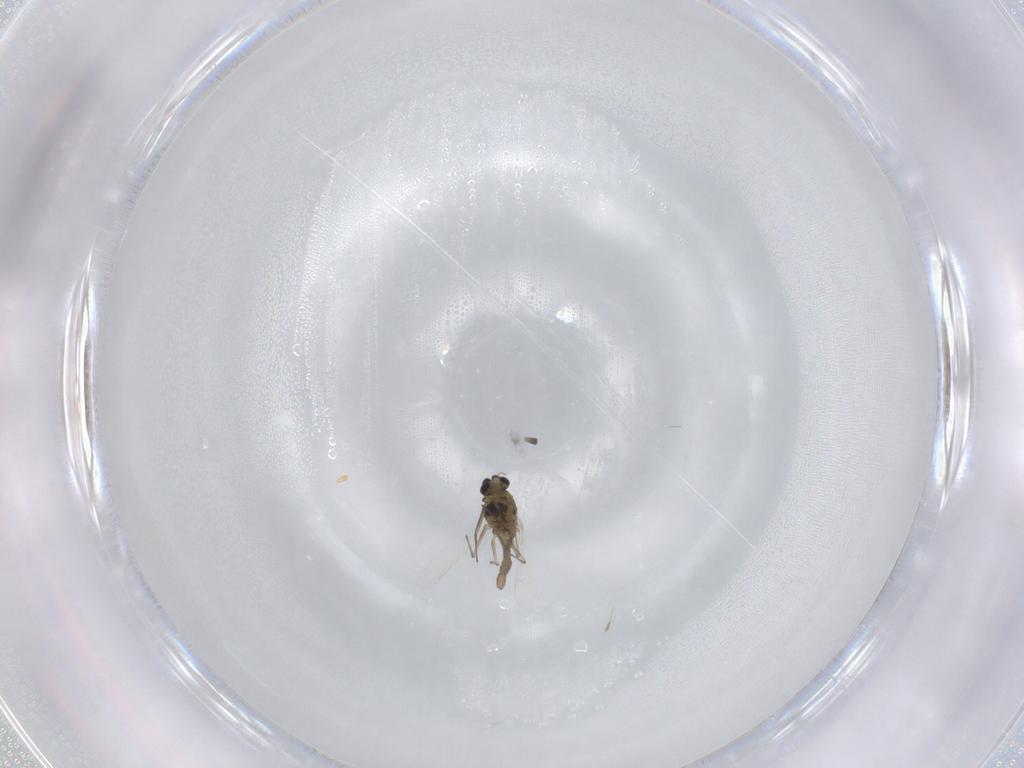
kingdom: Animalia
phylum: Arthropoda
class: Insecta
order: Diptera
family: Chironomidae
